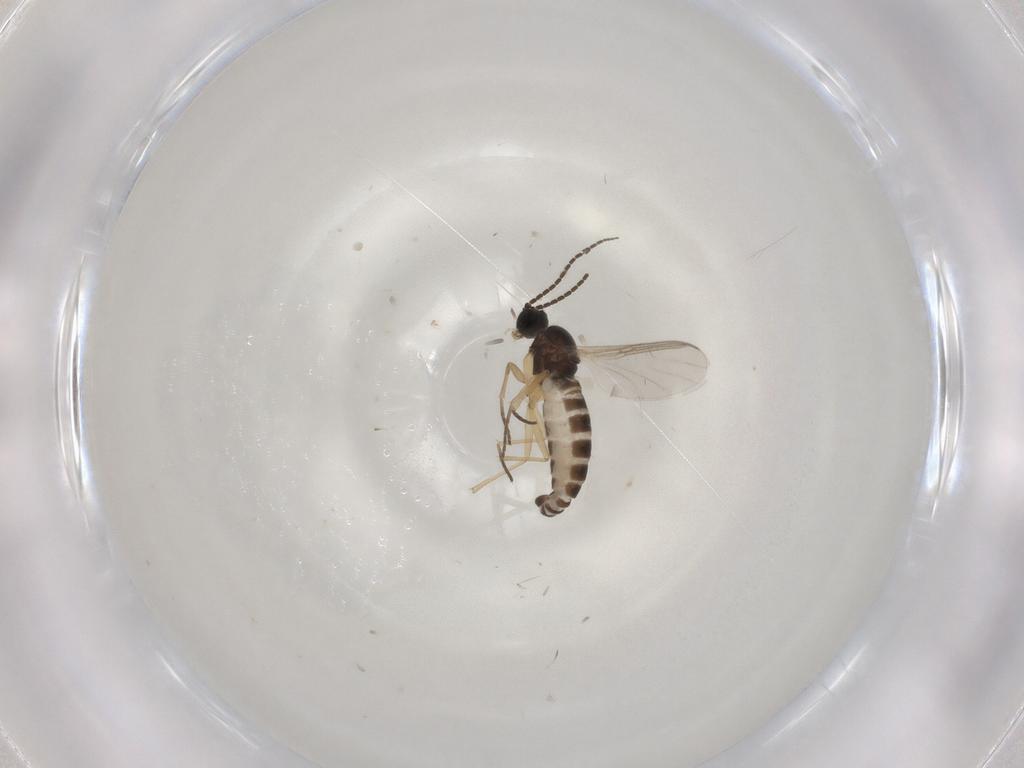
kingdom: Animalia
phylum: Arthropoda
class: Insecta
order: Diptera
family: Sciaridae
